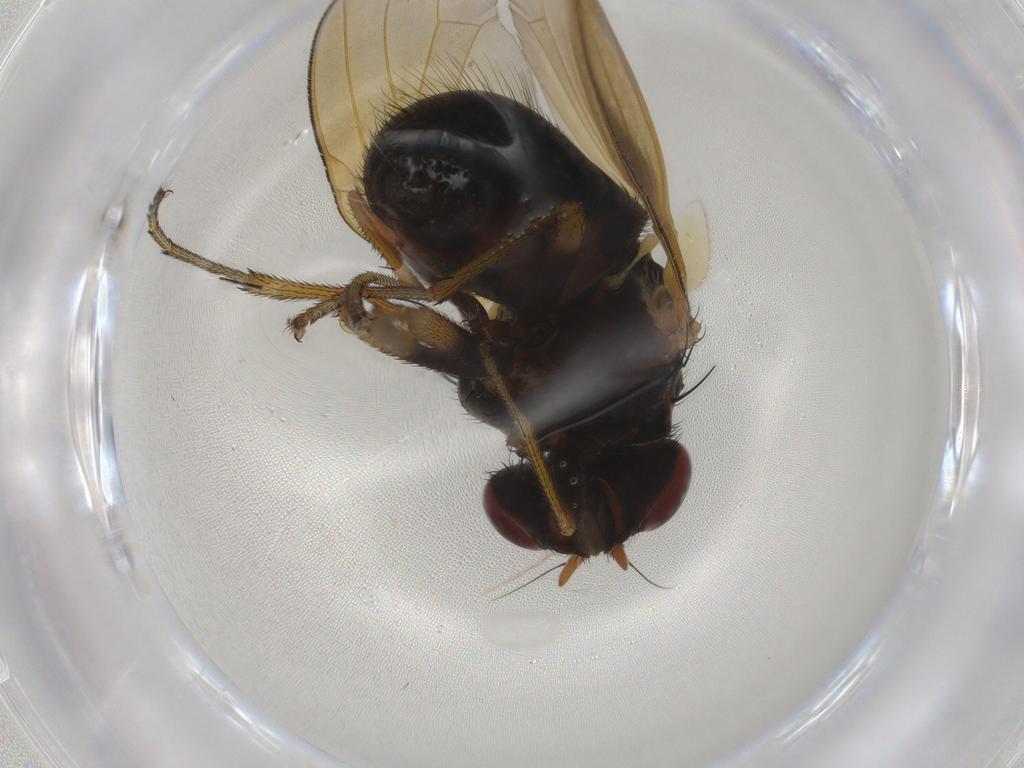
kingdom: Animalia
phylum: Arthropoda
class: Insecta
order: Diptera
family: Lauxaniidae
